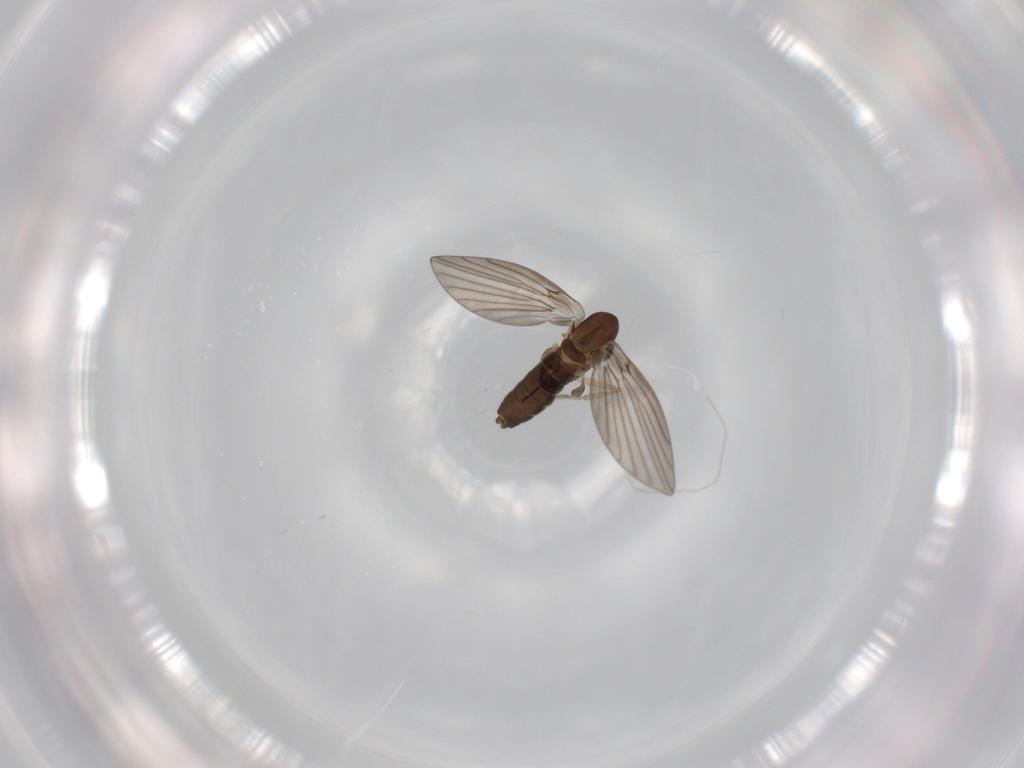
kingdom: Animalia
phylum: Arthropoda
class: Insecta
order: Diptera
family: Psychodidae
